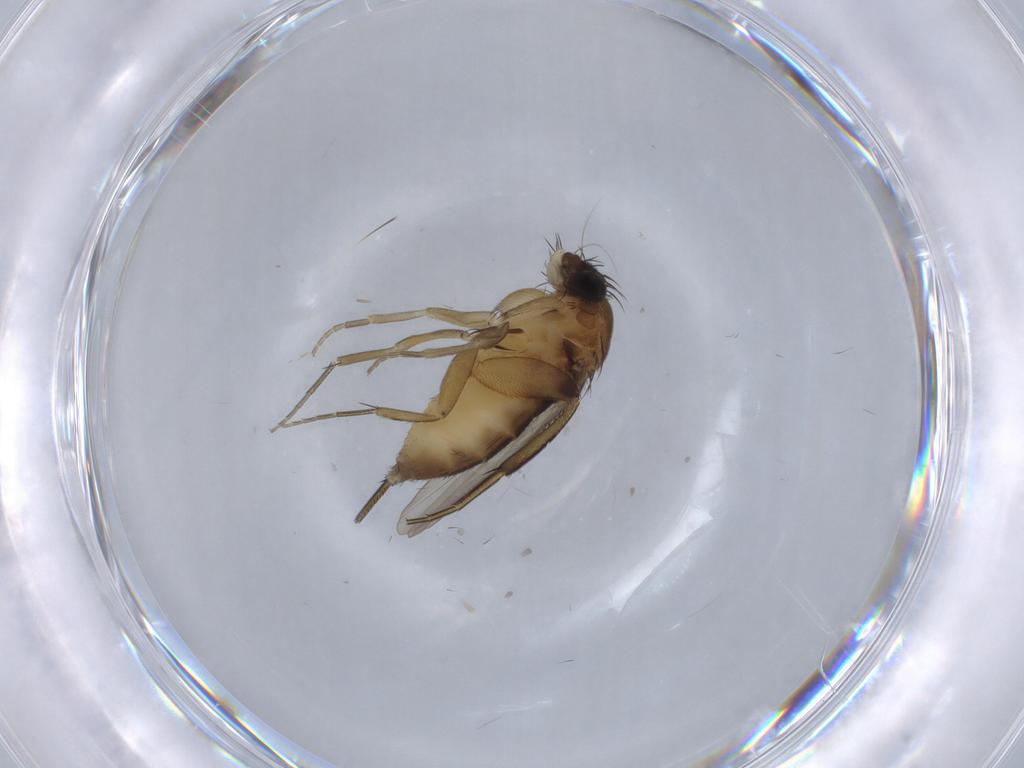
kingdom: Animalia
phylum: Arthropoda
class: Insecta
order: Diptera
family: Phoridae
